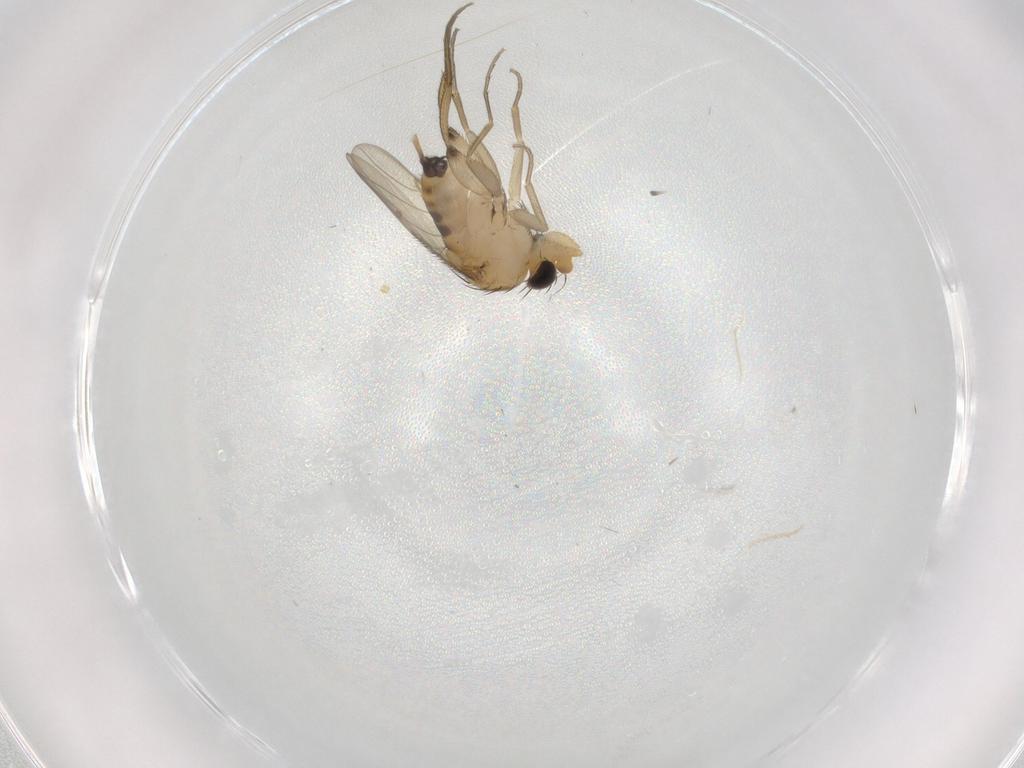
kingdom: Animalia
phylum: Arthropoda
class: Insecta
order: Diptera
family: Phoridae
